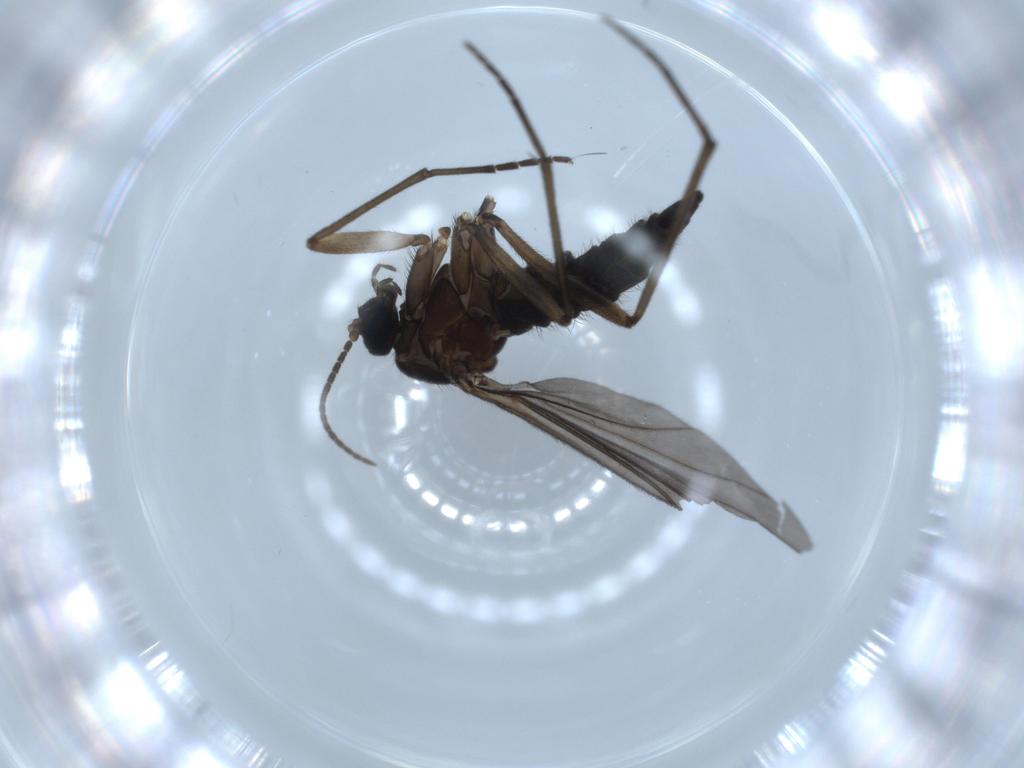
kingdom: Animalia
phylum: Arthropoda
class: Insecta
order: Diptera
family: Sciaridae
